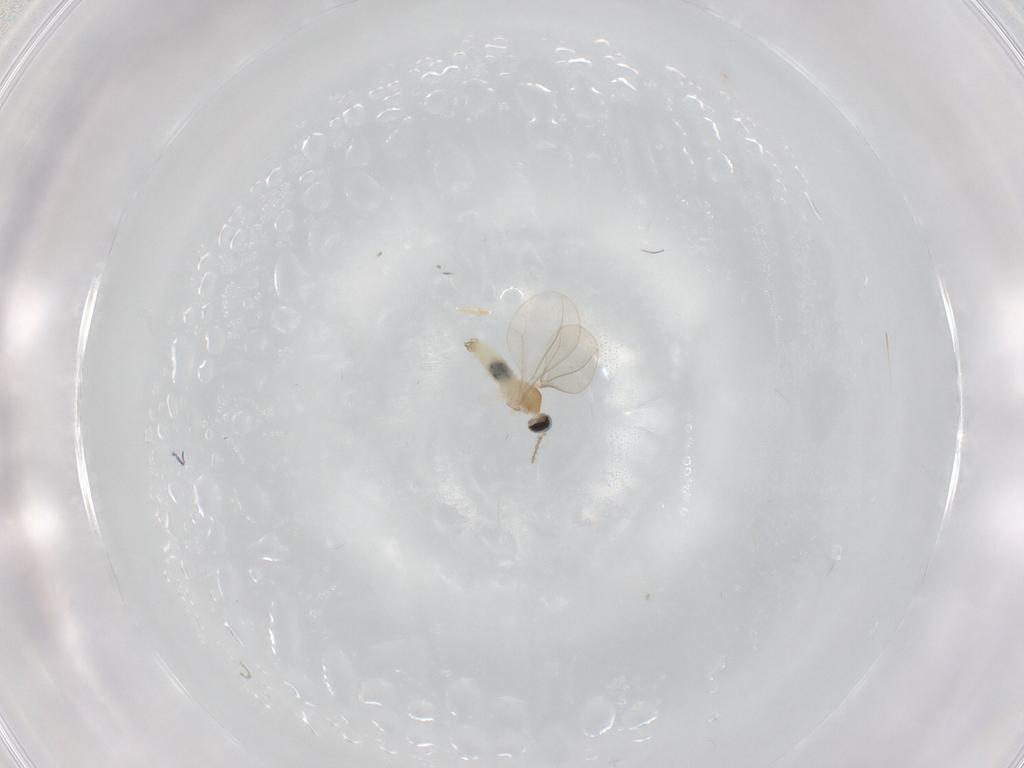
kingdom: Animalia
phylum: Arthropoda
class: Insecta
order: Diptera
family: Cecidomyiidae
